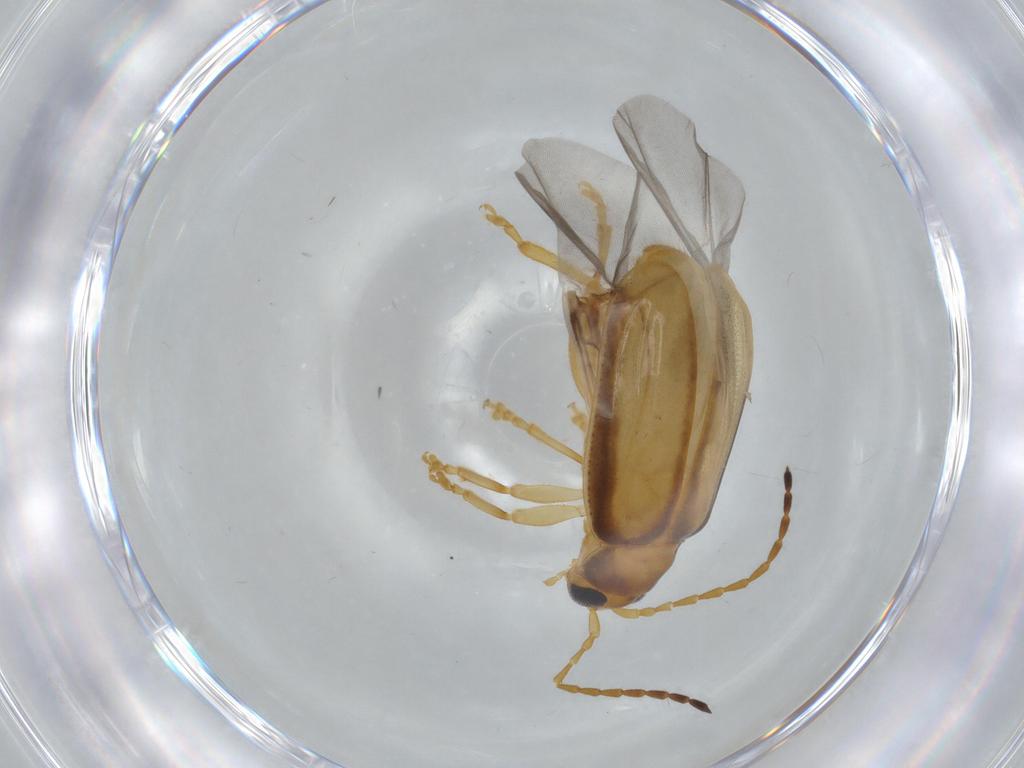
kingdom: Animalia
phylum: Arthropoda
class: Insecta
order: Coleoptera
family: Chrysomelidae
